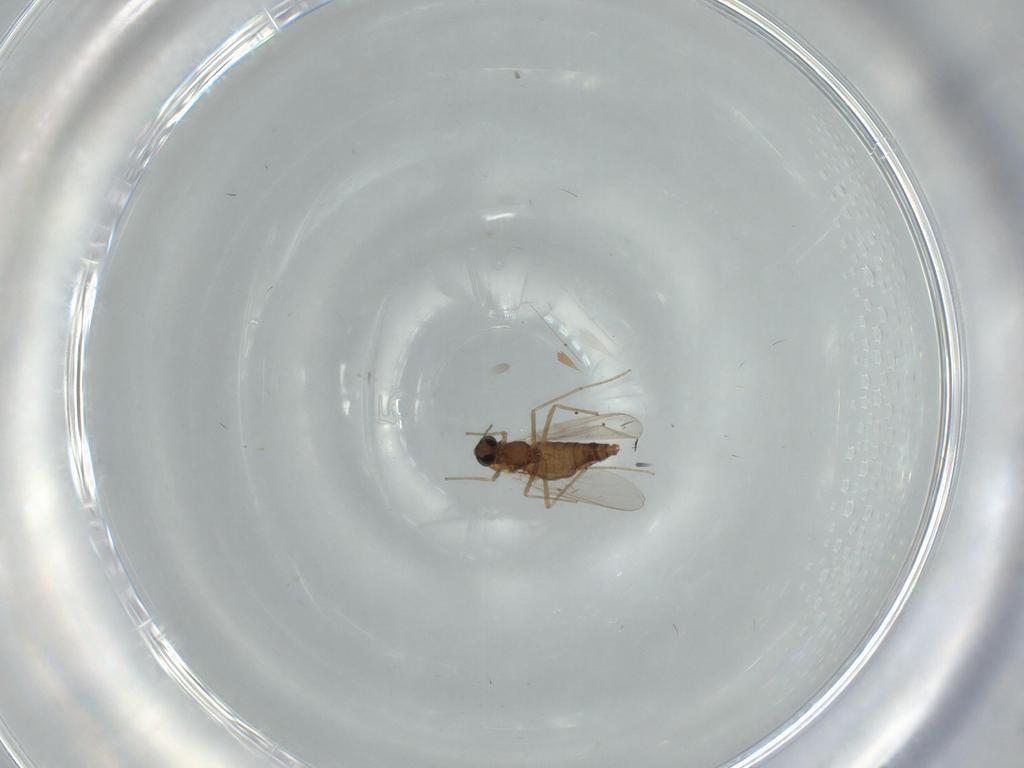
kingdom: Animalia
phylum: Arthropoda
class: Insecta
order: Diptera
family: Chironomidae
